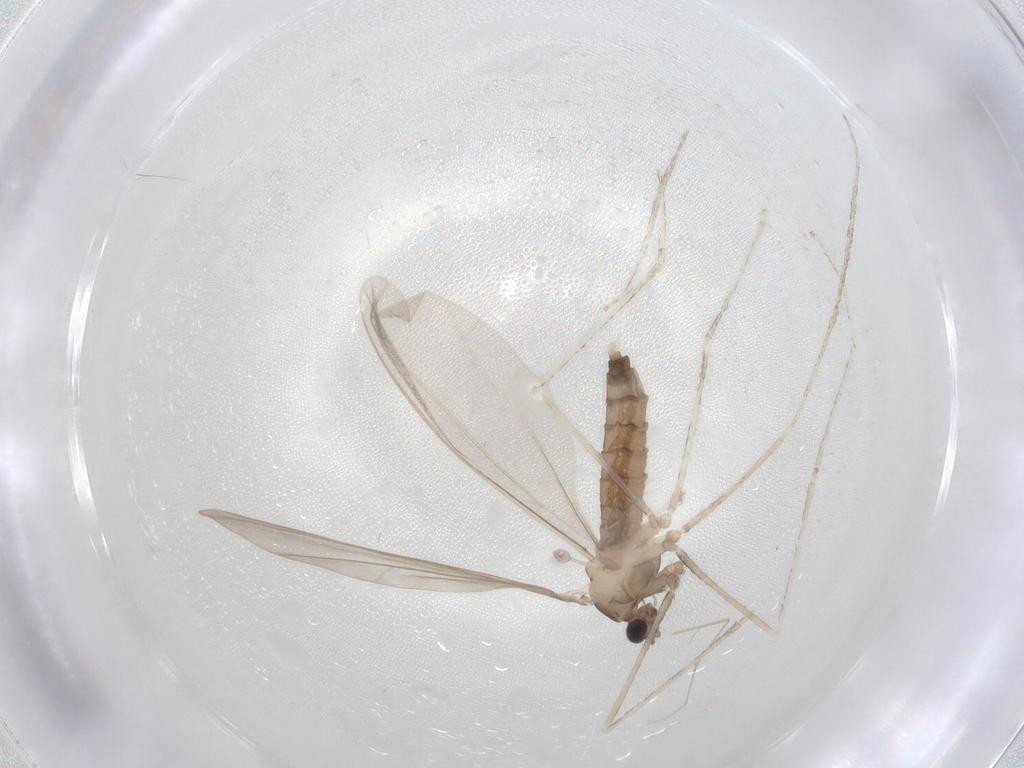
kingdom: Animalia
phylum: Arthropoda
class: Insecta
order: Diptera
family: Cecidomyiidae
